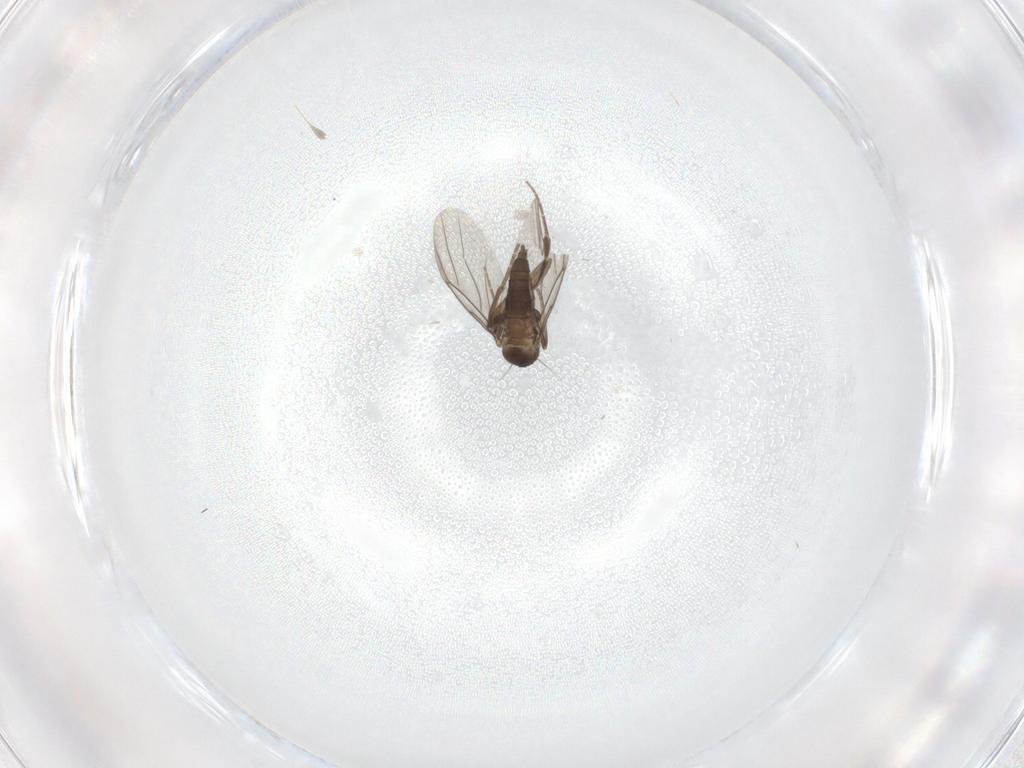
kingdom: Animalia
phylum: Arthropoda
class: Insecta
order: Diptera
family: Phoridae
